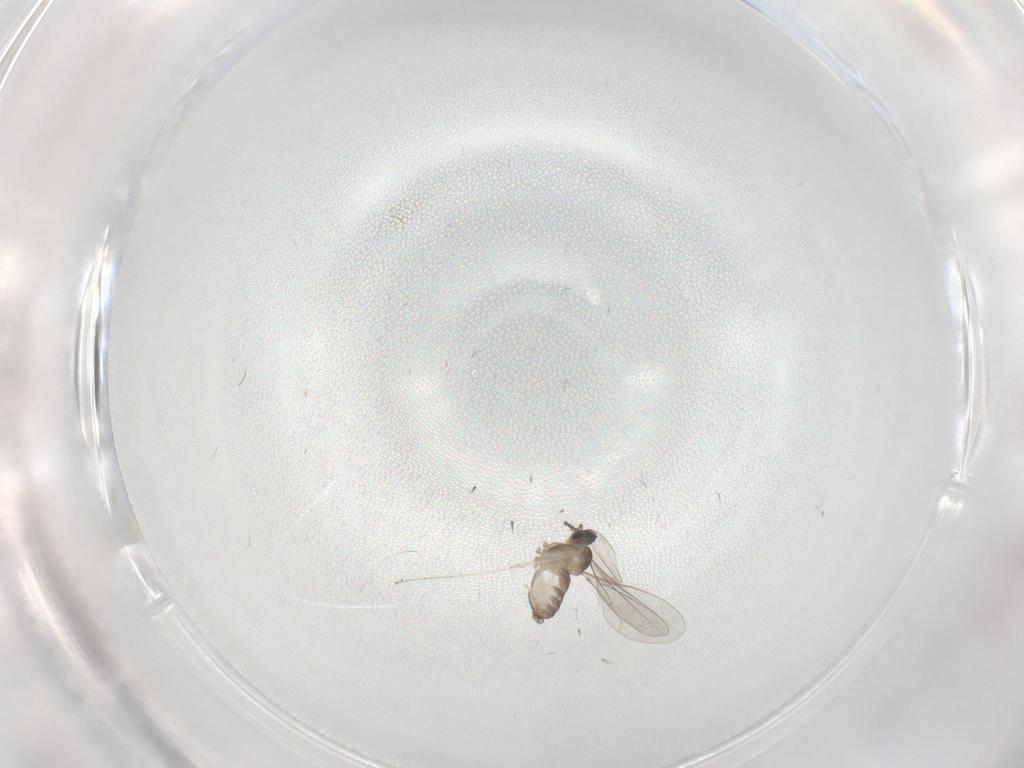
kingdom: Animalia
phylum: Arthropoda
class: Insecta
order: Diptera
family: Cecidomyiidae
